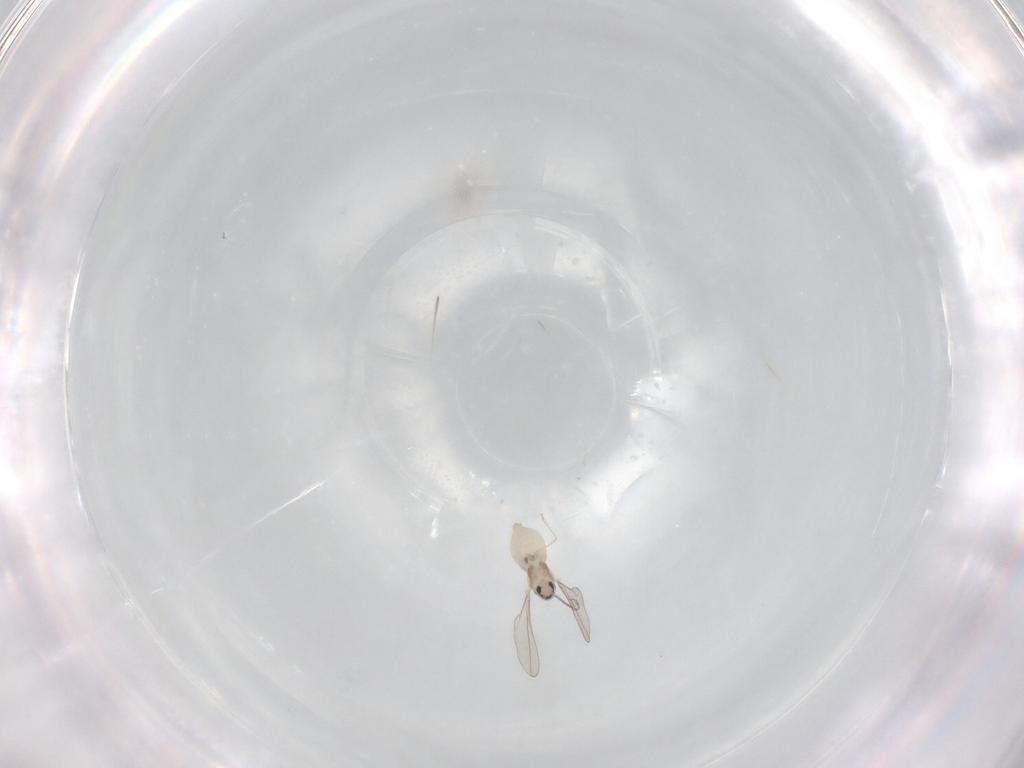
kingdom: Animalia
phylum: Arthropoda
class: Insecta
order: Diptera
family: Cecidomyiidae
